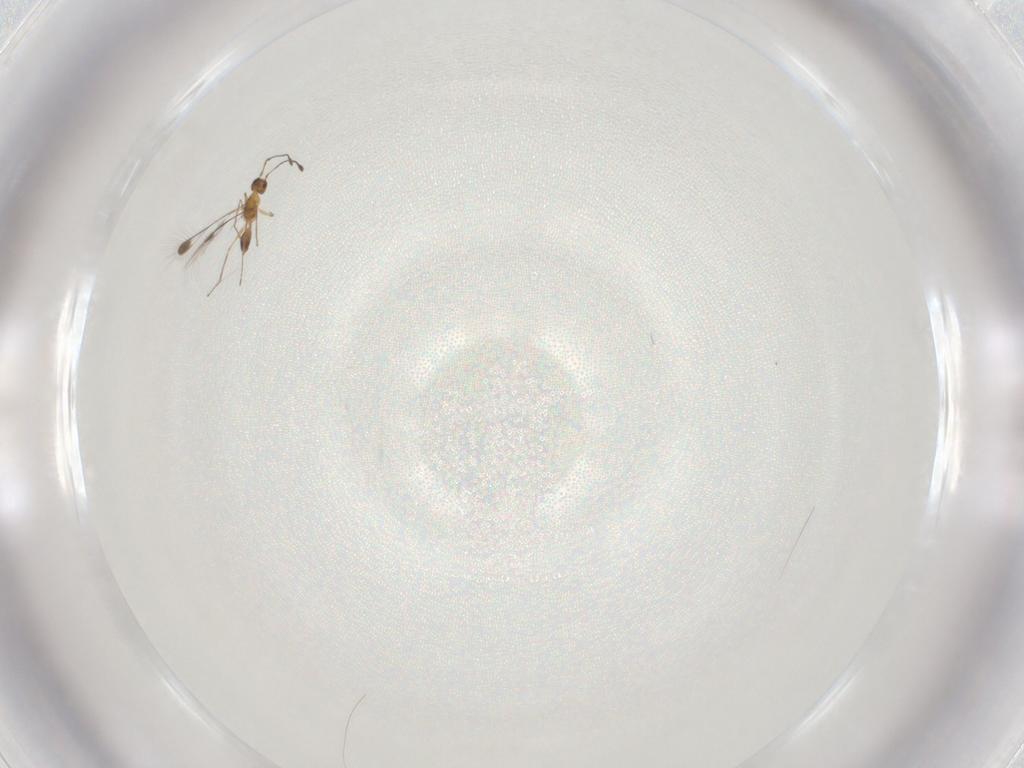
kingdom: Animalia
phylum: Arthropoda
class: Insecta
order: Hymenoptera
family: Mymaridae
